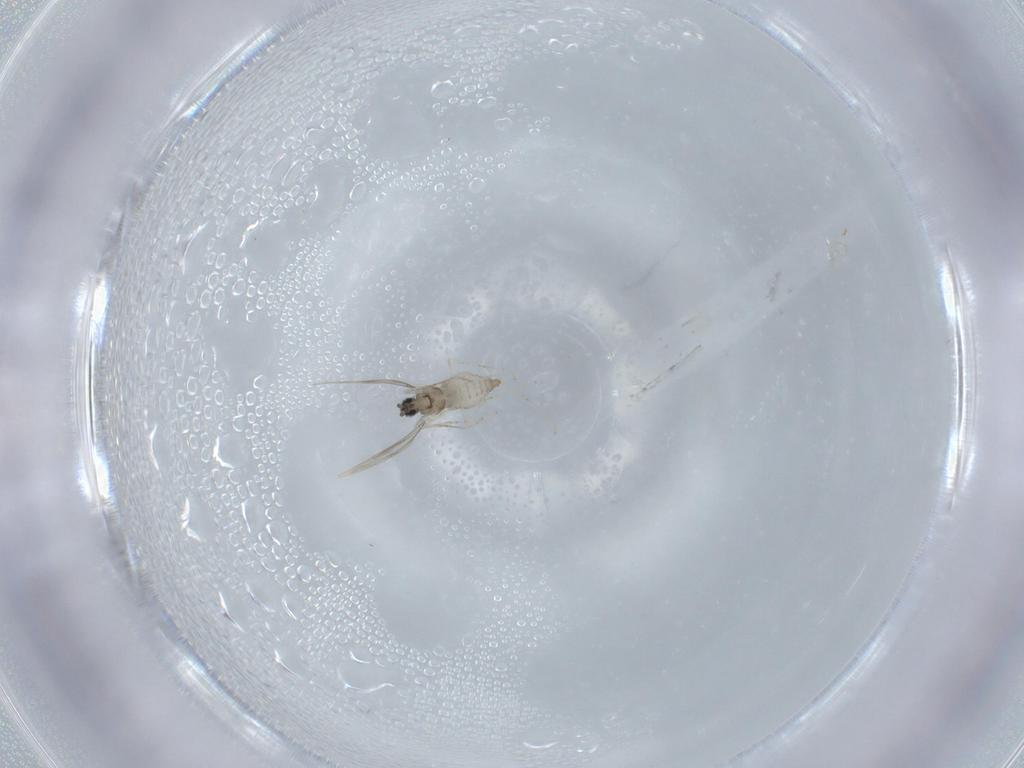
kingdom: Animalia
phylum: Arthropoda
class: Insecta
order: Diptera
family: Cecidomyiidae
